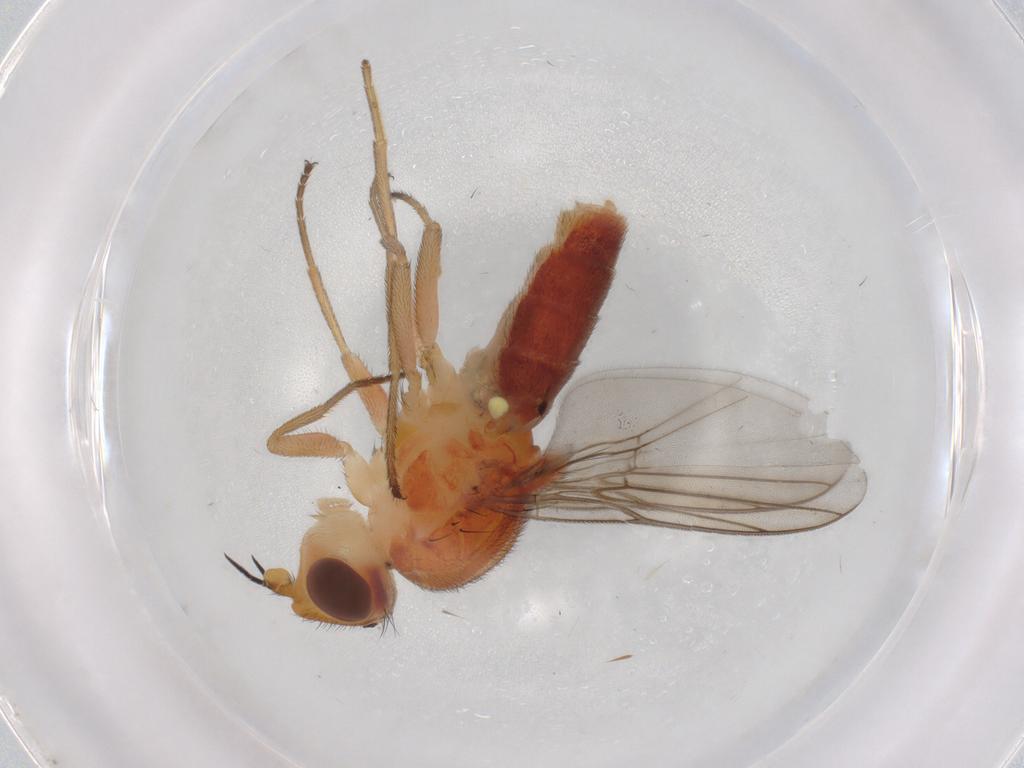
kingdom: Animalia
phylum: Arthropoda
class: Insecta
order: Diptera
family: Chloropidae
